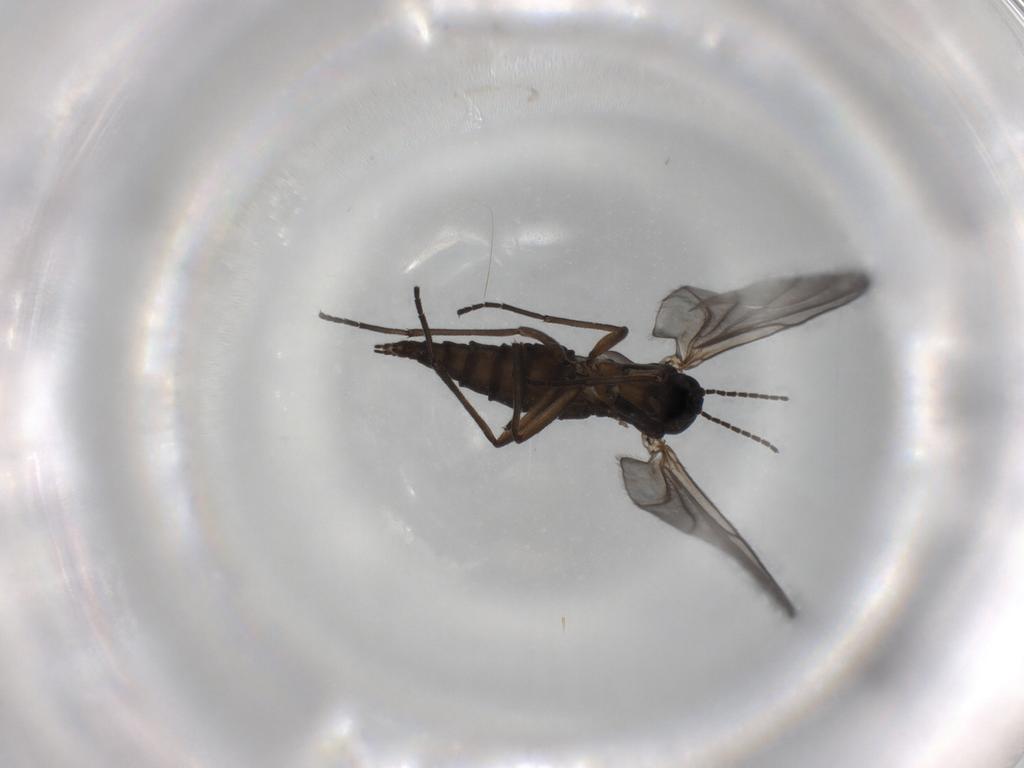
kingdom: Animalia
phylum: Arthropoda
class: Insecta
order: Diptera
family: Sciaridae
